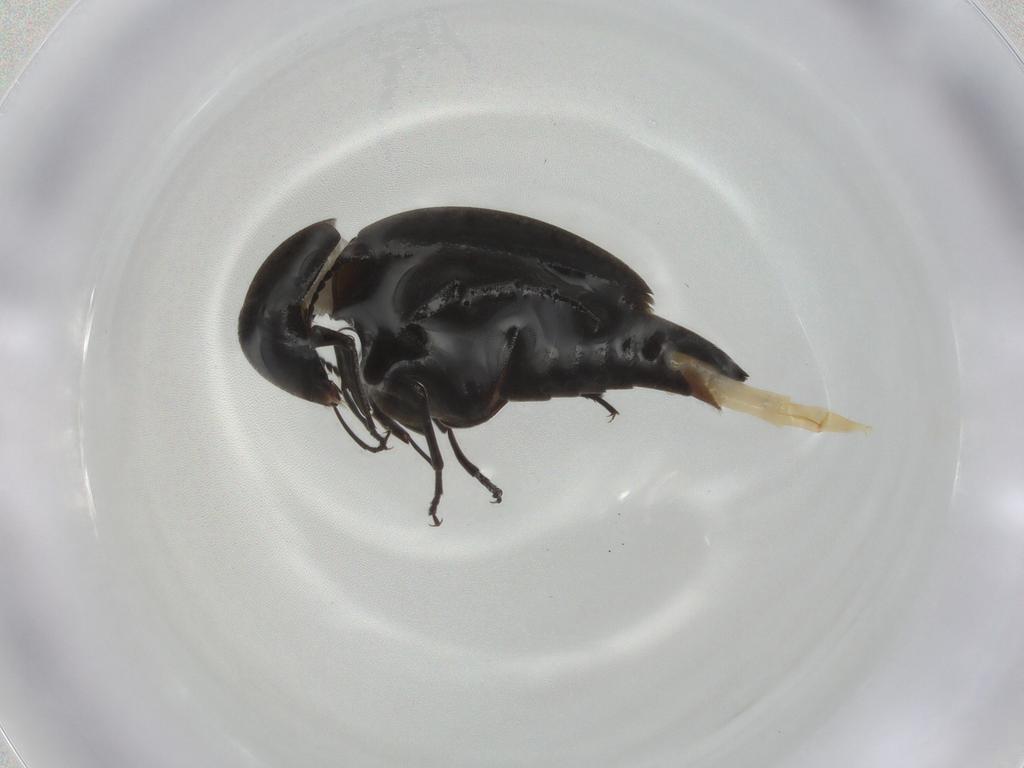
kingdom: Animalia
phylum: Arthropoda
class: Insecta
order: Coleoptera
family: Mordellidae
